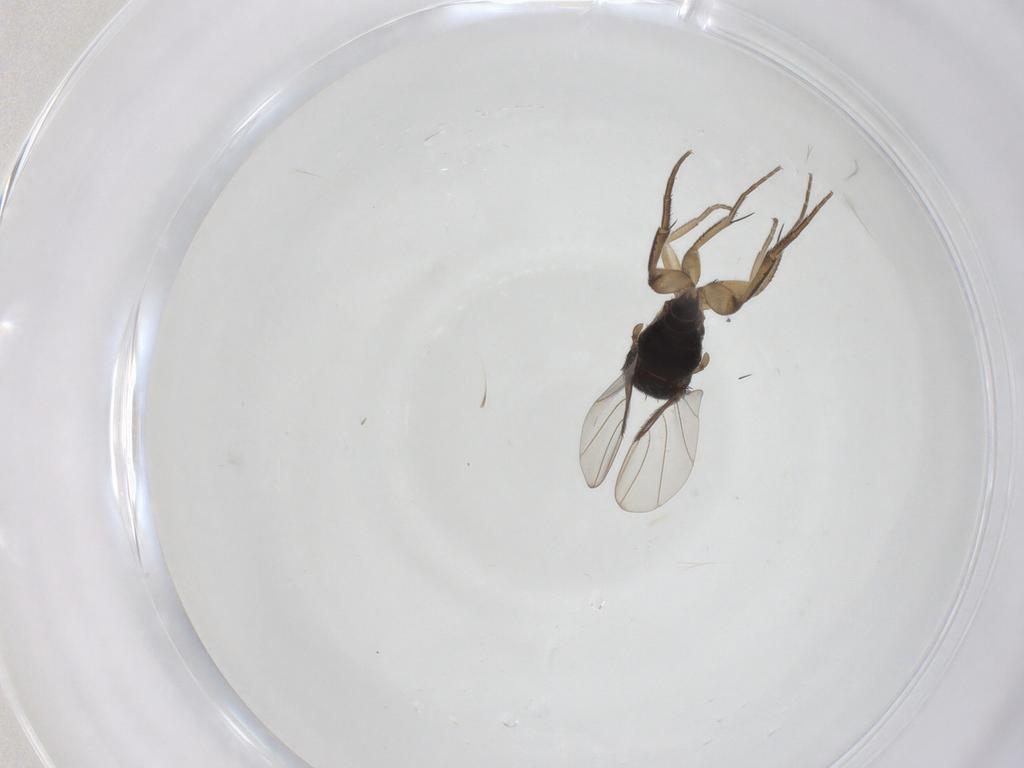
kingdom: Animalia
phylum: Arthropoda
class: Insecta
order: Diptera
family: Phoridae
